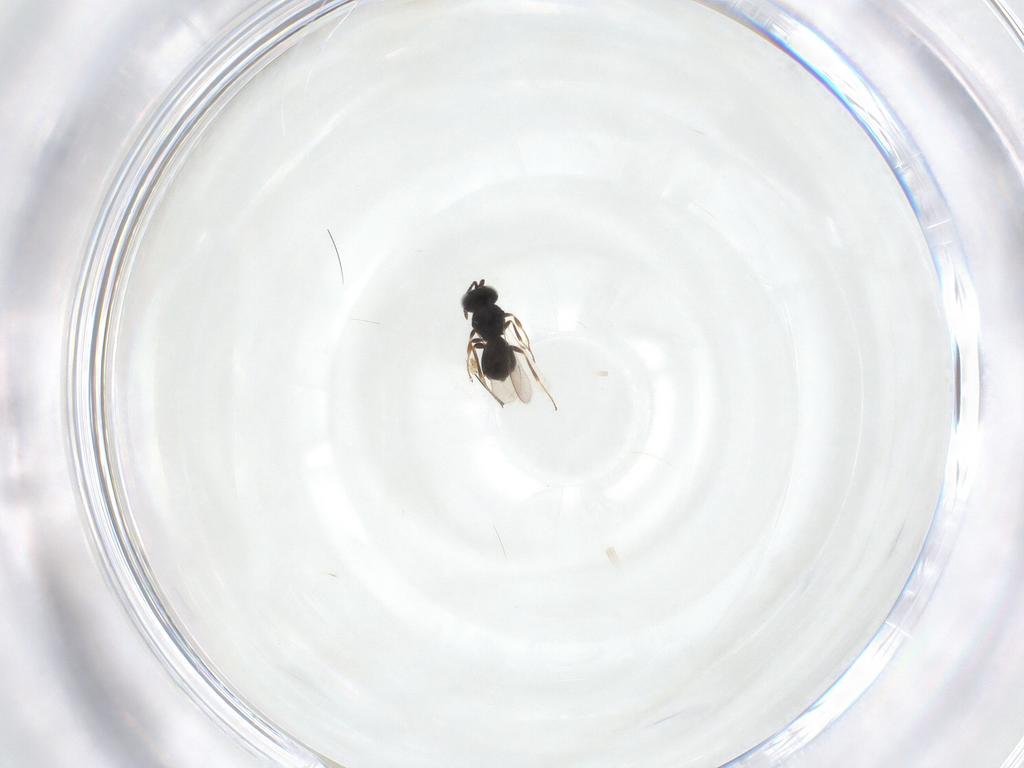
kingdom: Animalia
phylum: Arthropoda
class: Insecta
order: Hymenoptera
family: Scelionidae
